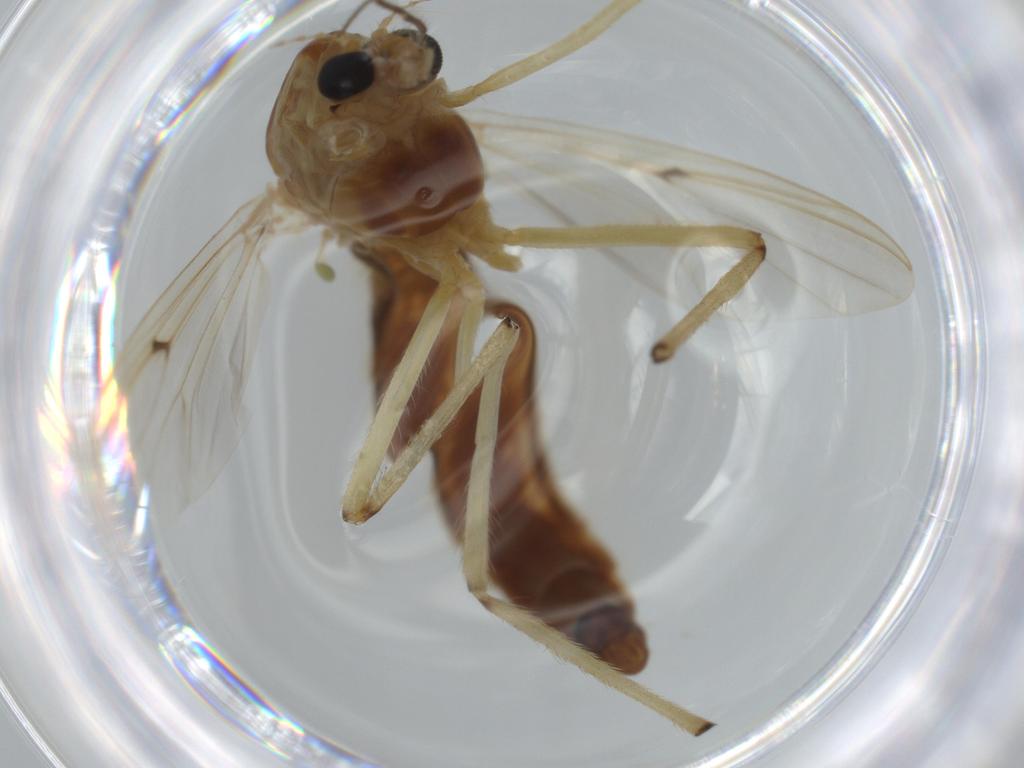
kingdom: Animalia
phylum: Arthropoda
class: Insecta
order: Diptera
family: Chironomidae
